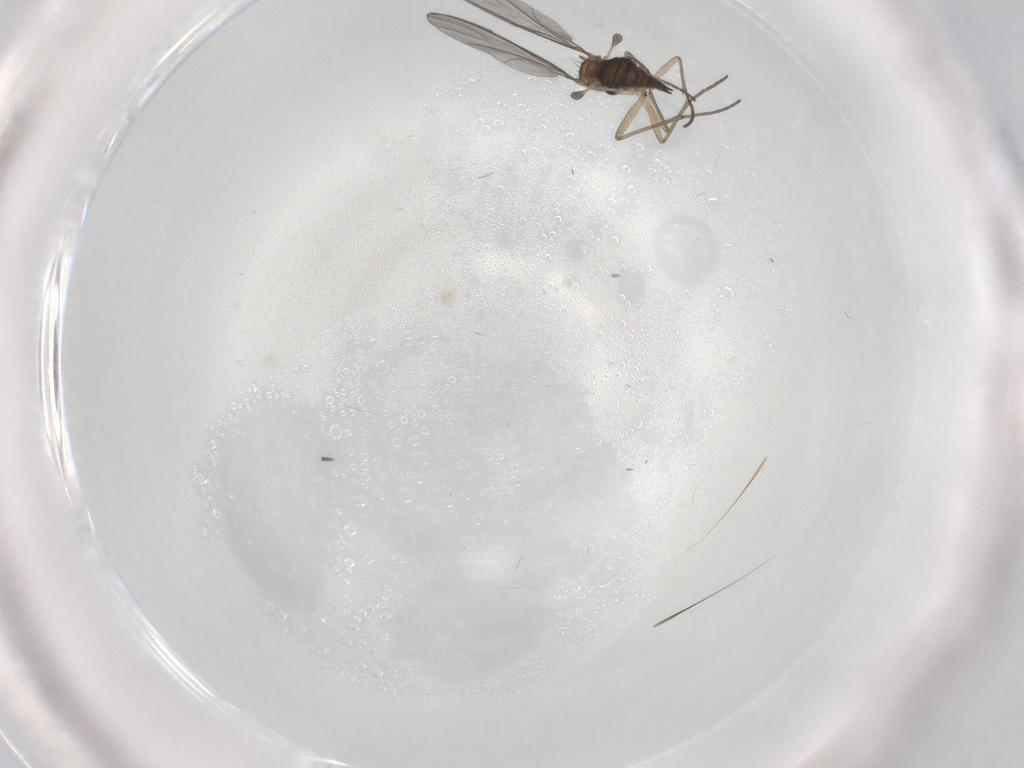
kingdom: Animalia
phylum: Arthropoda
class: Insecta
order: Diptera
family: Sciaridae
